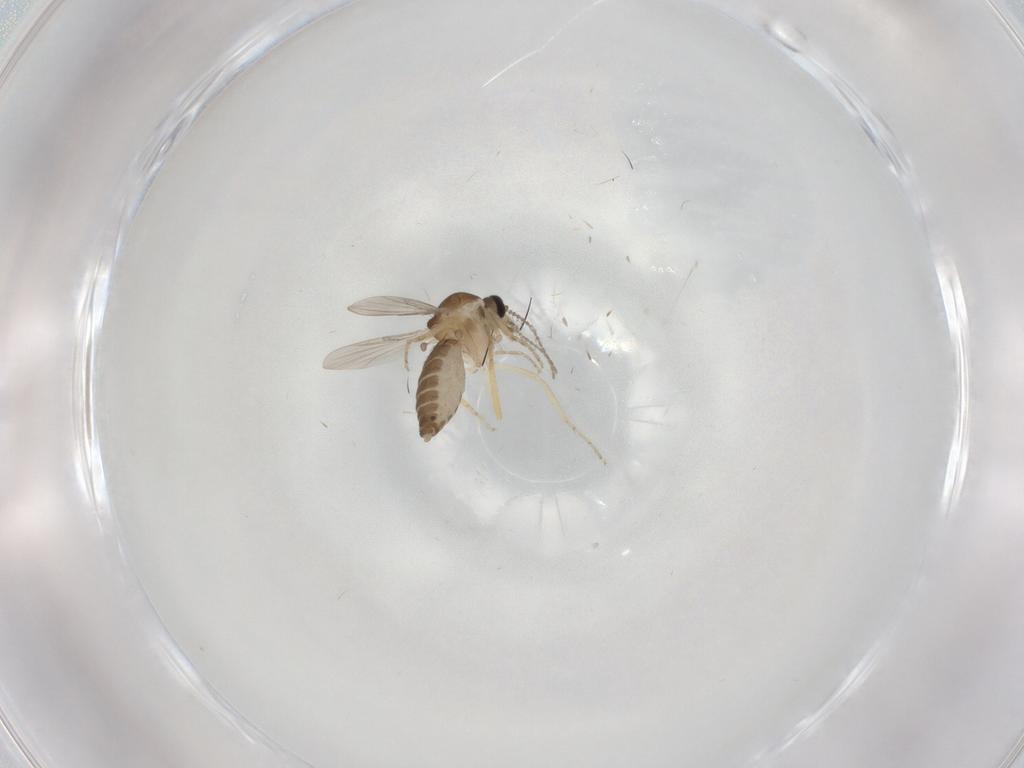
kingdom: Animalia
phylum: Arthropoda
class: Insecta
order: Diptera
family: Ceratopogonidae
